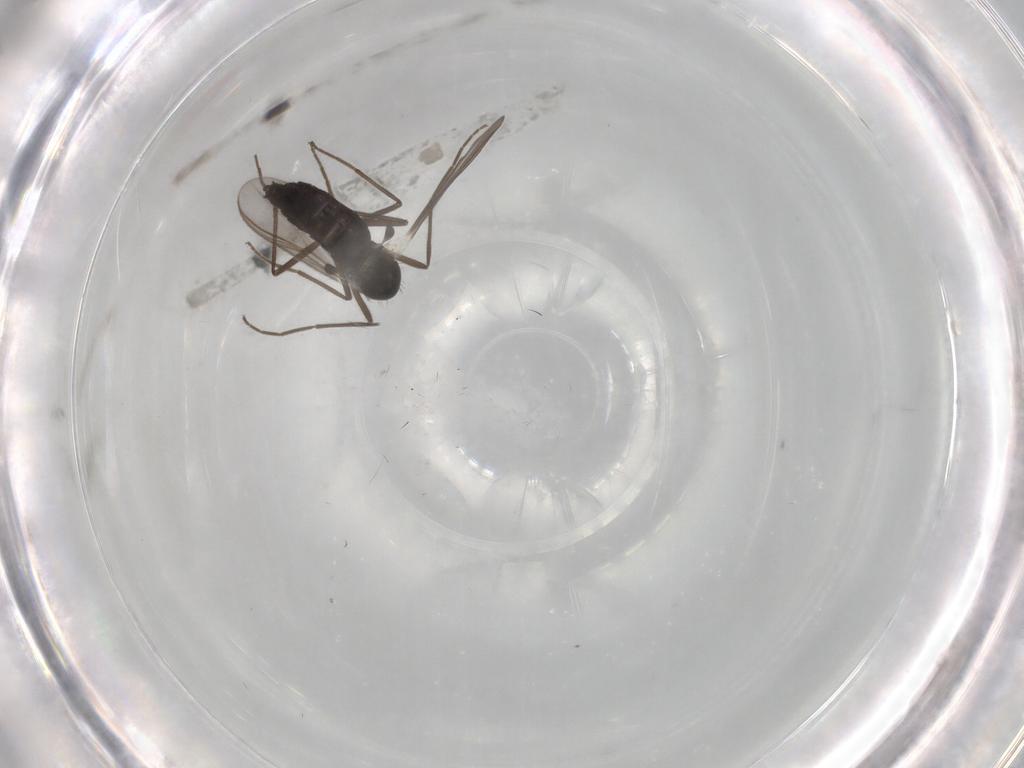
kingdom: Animalia
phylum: Arthropoda
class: Insecta
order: Diptera
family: Chironomidae
